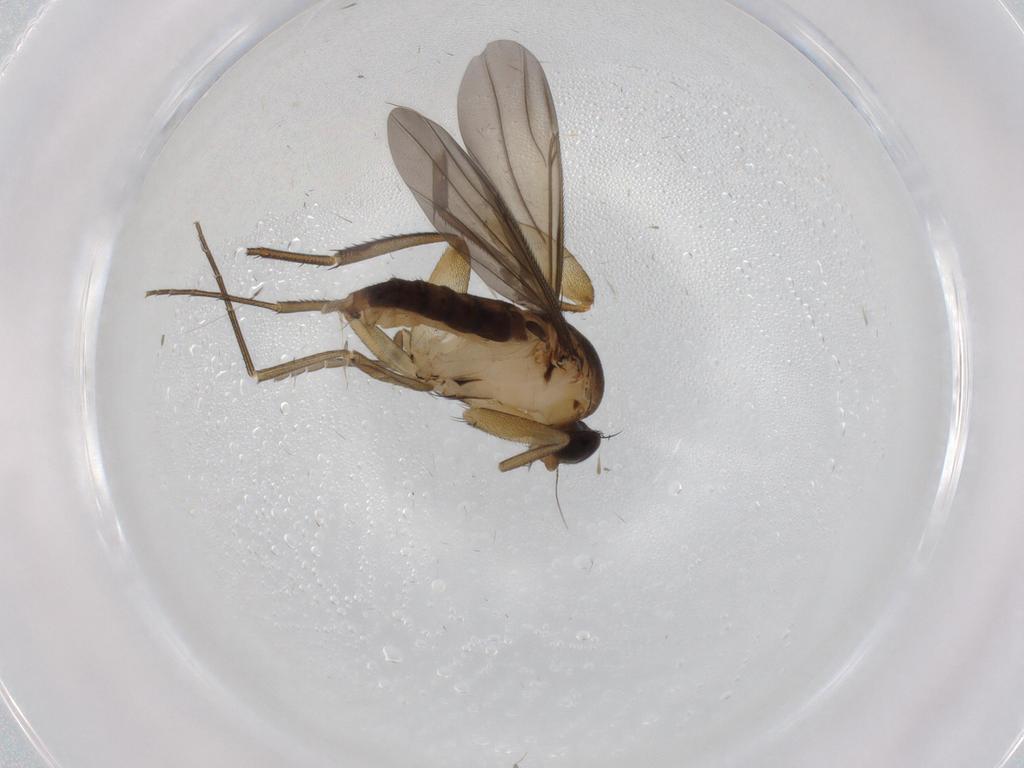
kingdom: Animalia
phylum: Arthropoda
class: Insecta
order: Diptera
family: Phoridae
